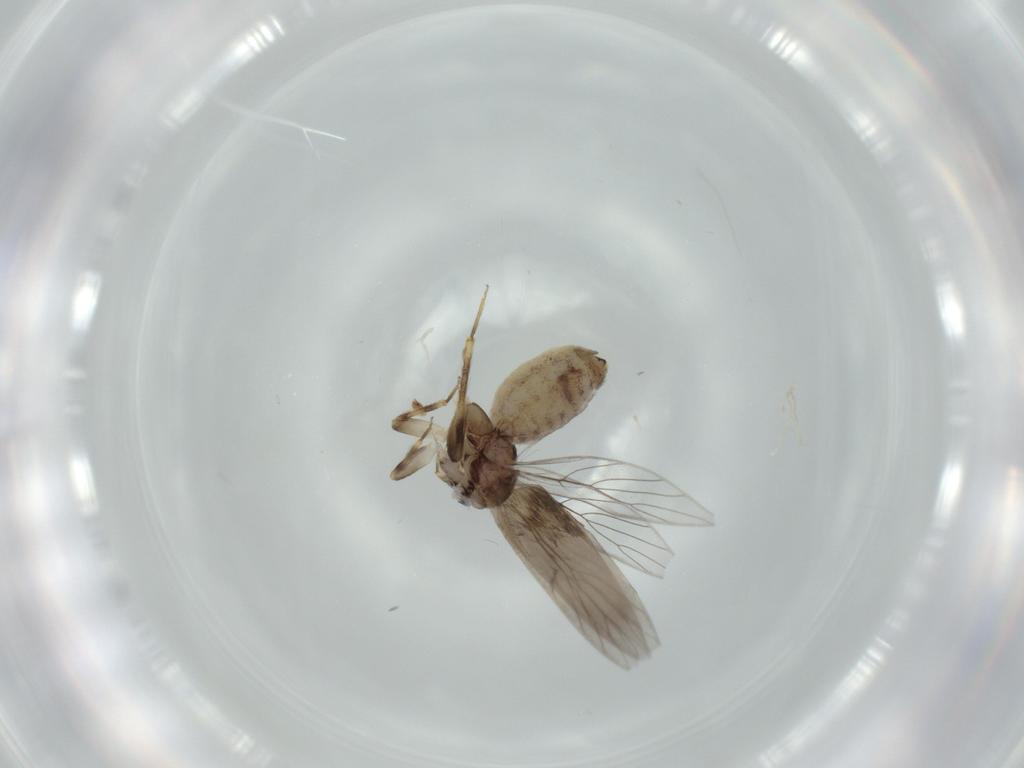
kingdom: Animalia
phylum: Arthropoda
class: Insecta
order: Psocodea
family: Lepidopsocidae
